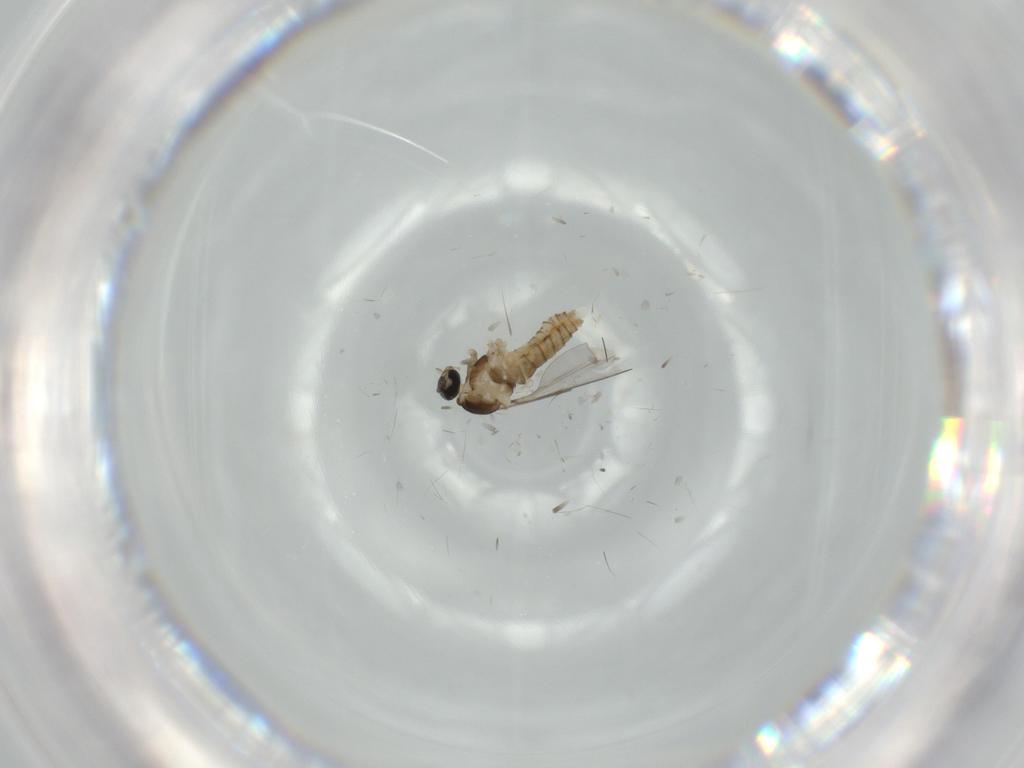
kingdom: Animalia
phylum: Arthropoda
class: Insecta
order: Diptera
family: Cecidomyiidae
